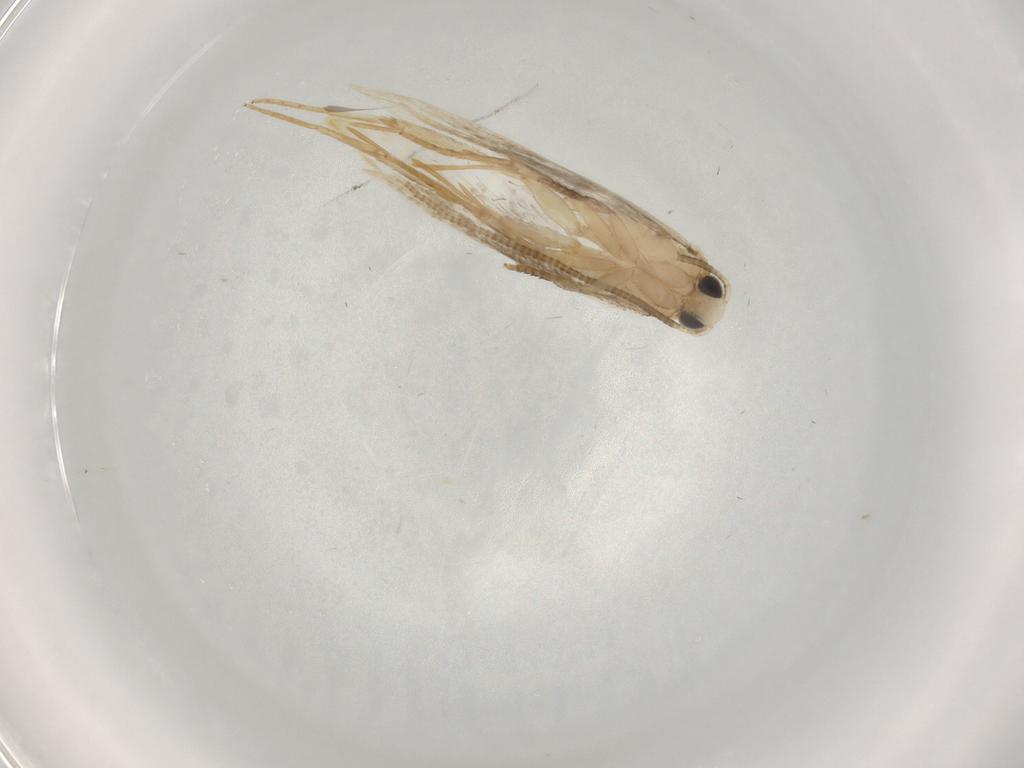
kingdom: Animalia
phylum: Arthropoda
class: Insecta
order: Lepidoptera
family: Tineidae
